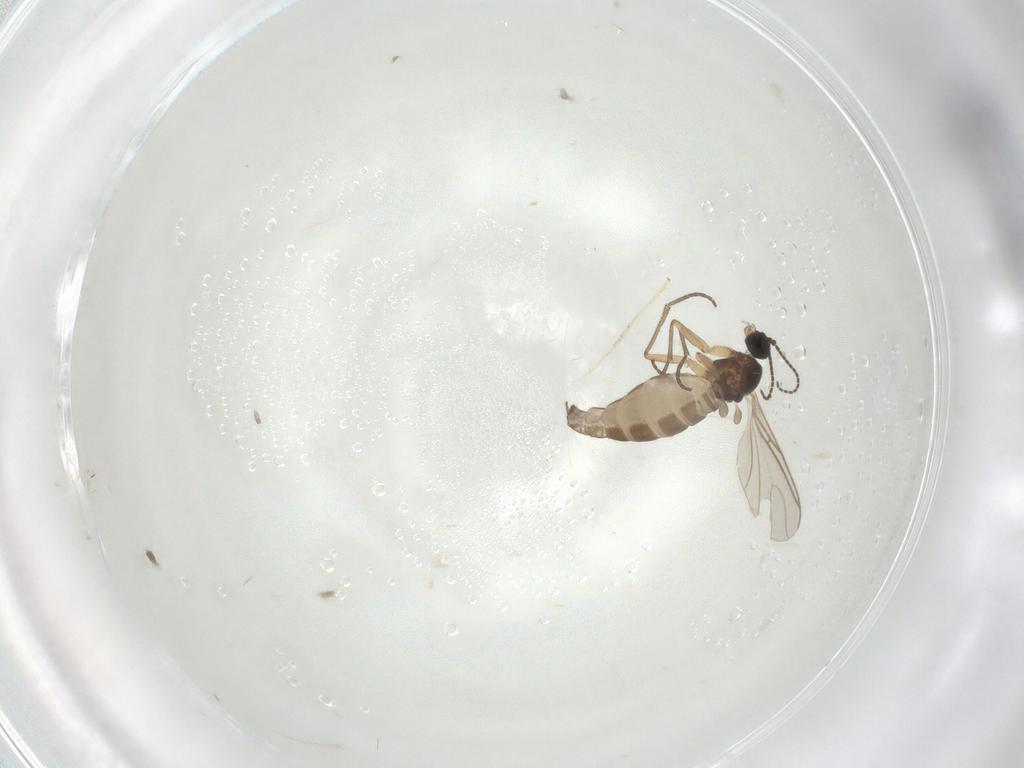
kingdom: Animalia
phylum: Arthropoda
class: Insecta
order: Diptera
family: Sciaridae
